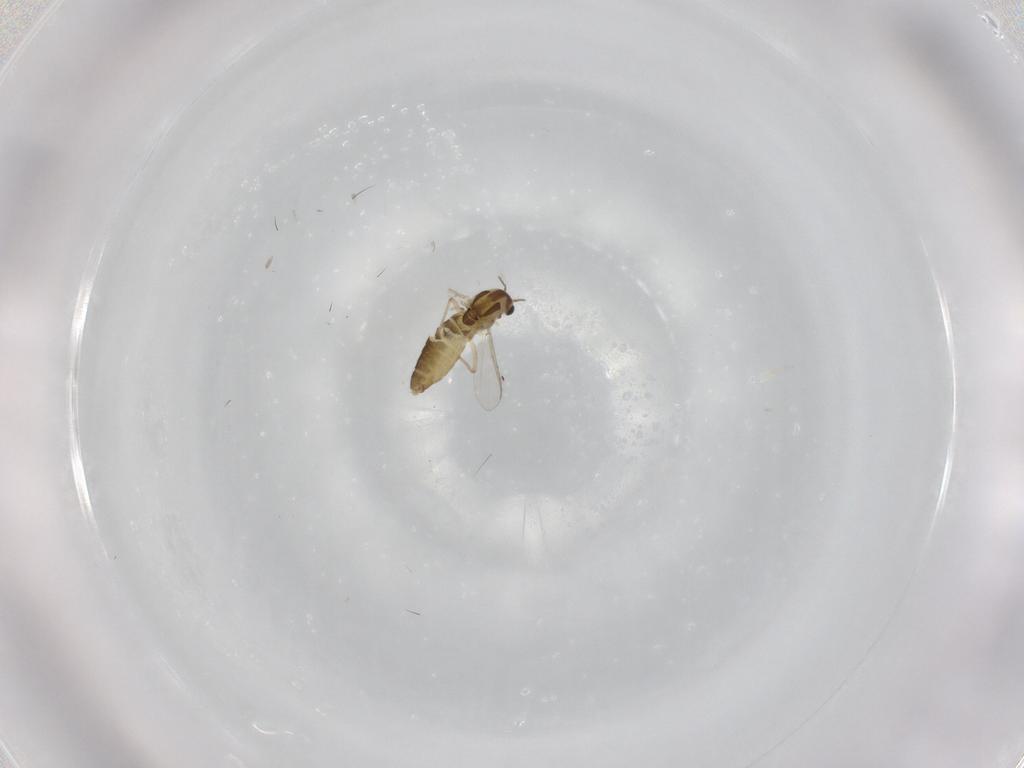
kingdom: Animalia
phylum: Arthropoda
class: Insecta
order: Diptera
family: Chironomidae
